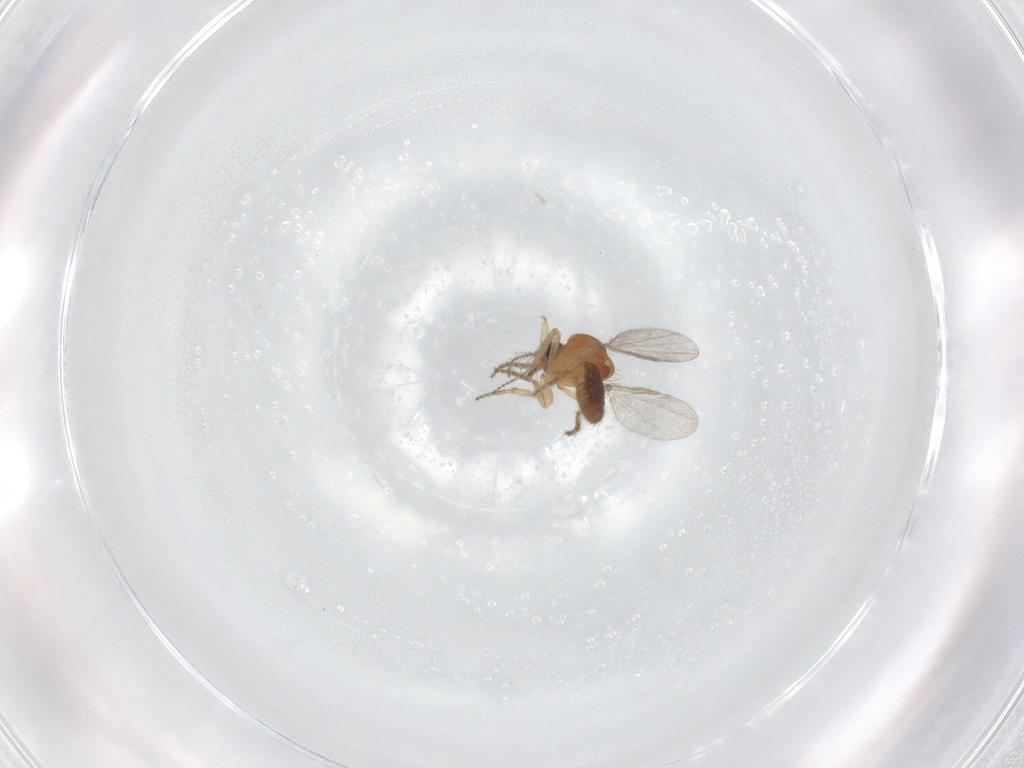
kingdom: Animalia
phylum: Arthropoda
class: Insecta
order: Diptera
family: Ceratopogonidae
